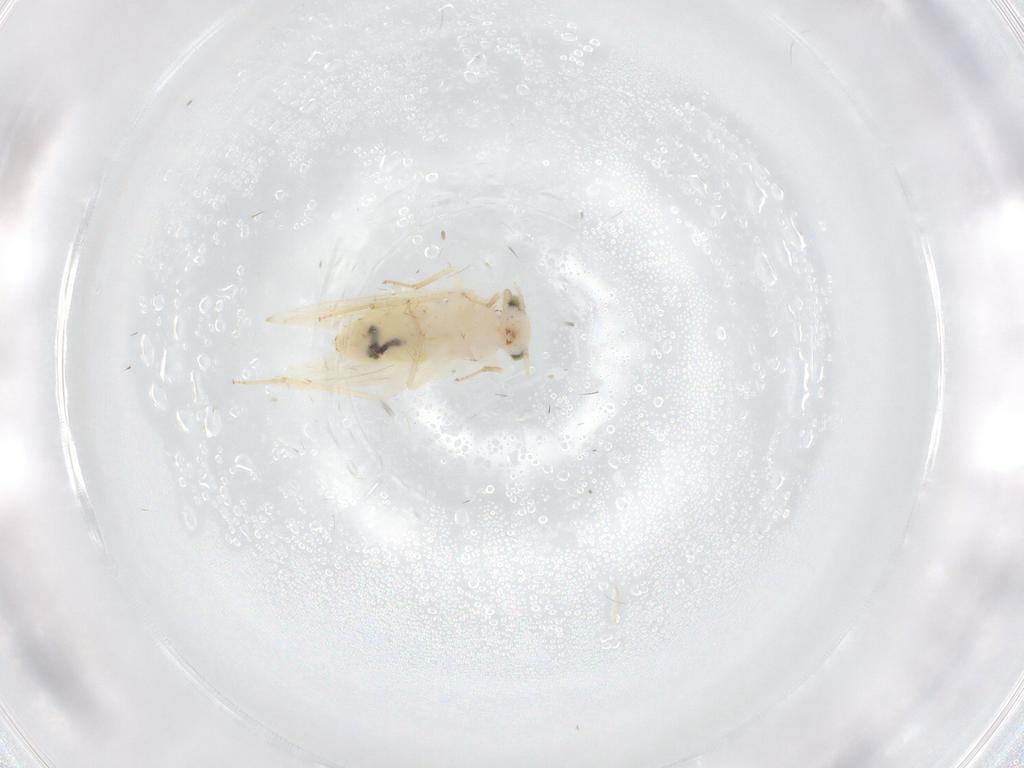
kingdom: Animalia
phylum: Arthropoda
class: Insecta
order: Psocodea
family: Lepidopsocidae
